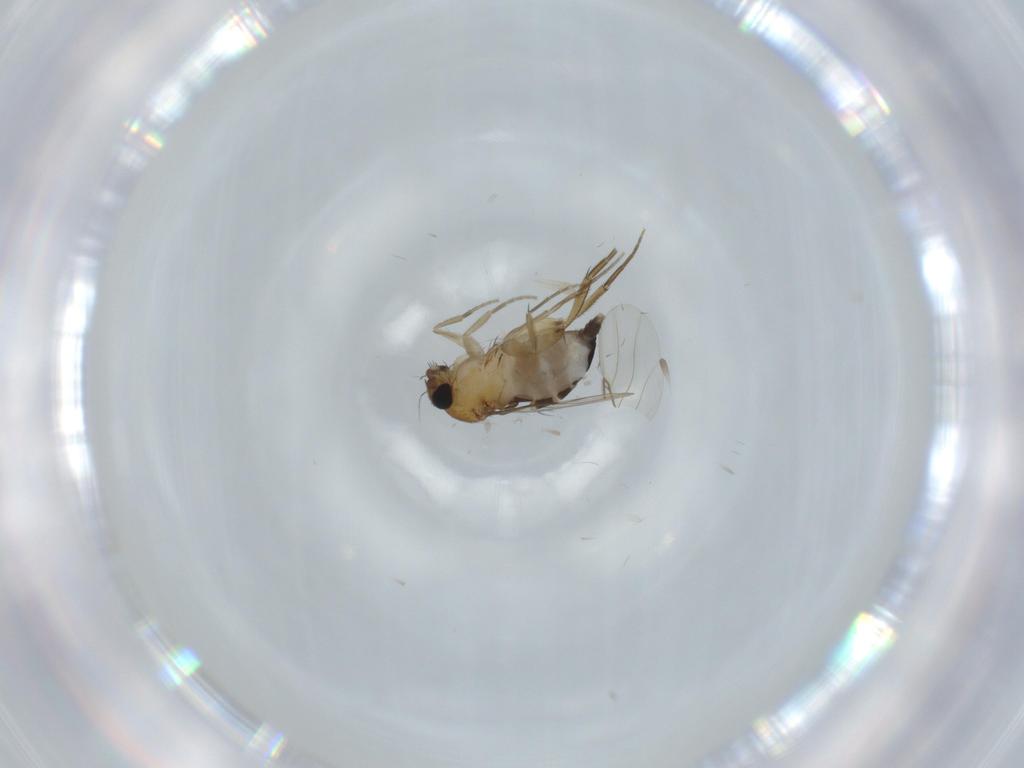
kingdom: Animalia
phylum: Arthropoda
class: Insecta
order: Diptera
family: Phoridae
